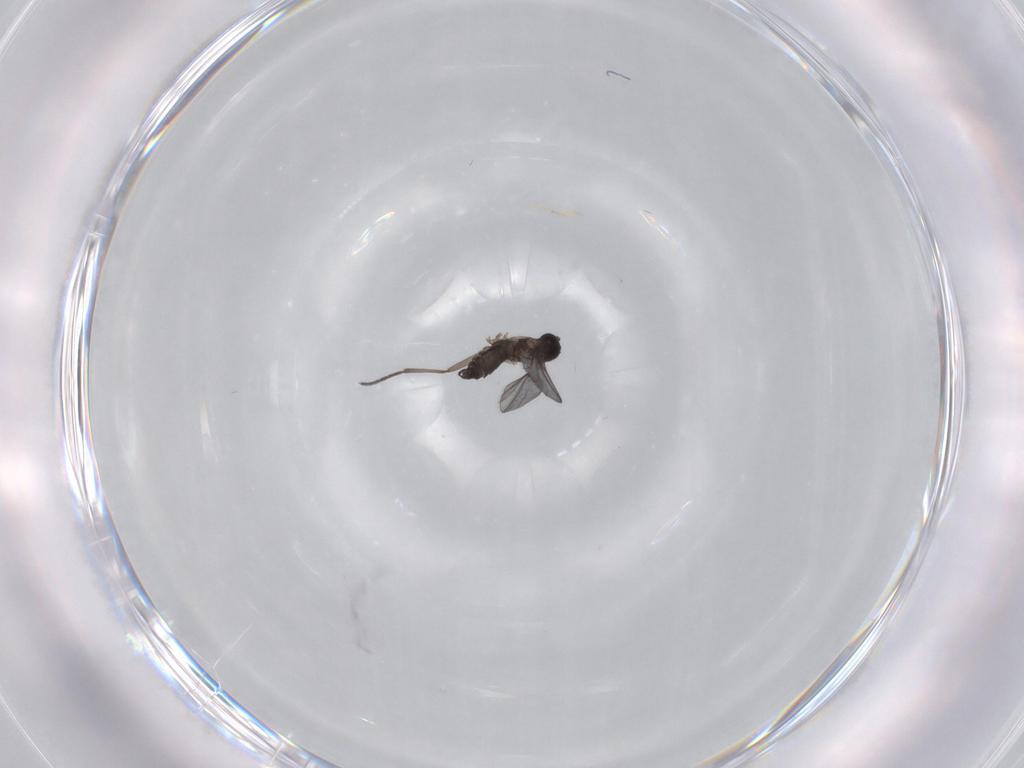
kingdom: Animalia
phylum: Arthropoda
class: Insecta
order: Diptera
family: Sciaridae
